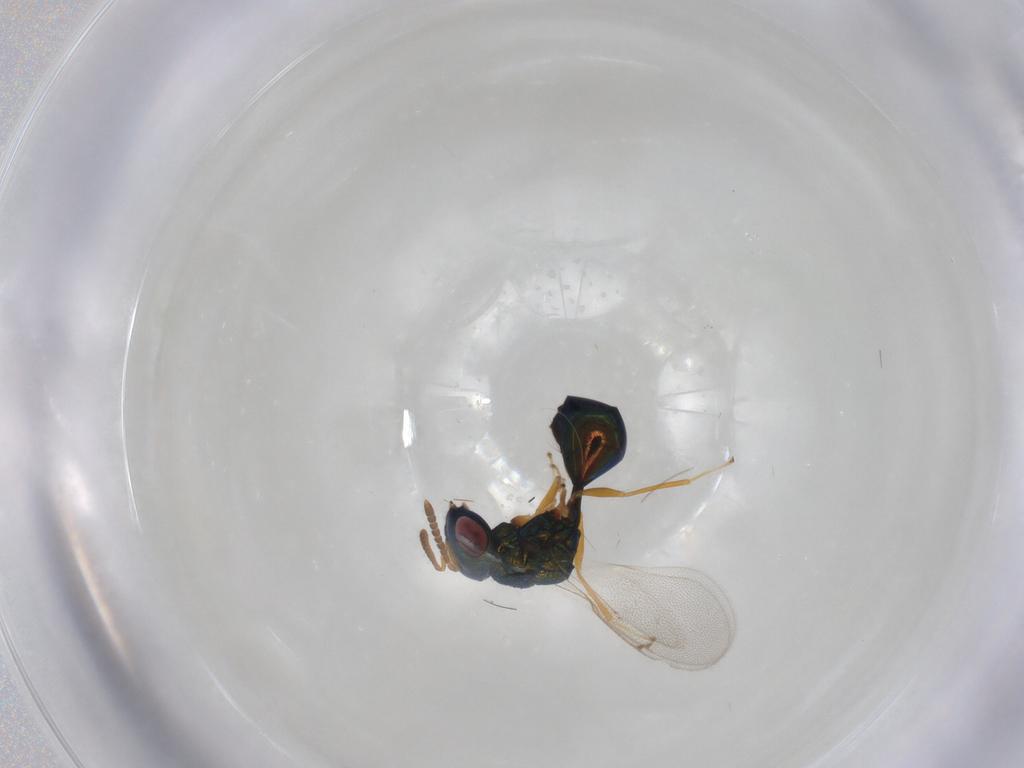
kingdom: Animalia
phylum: Arthropoda
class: Insecta
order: Hymenoptera
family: Eucharitidae
